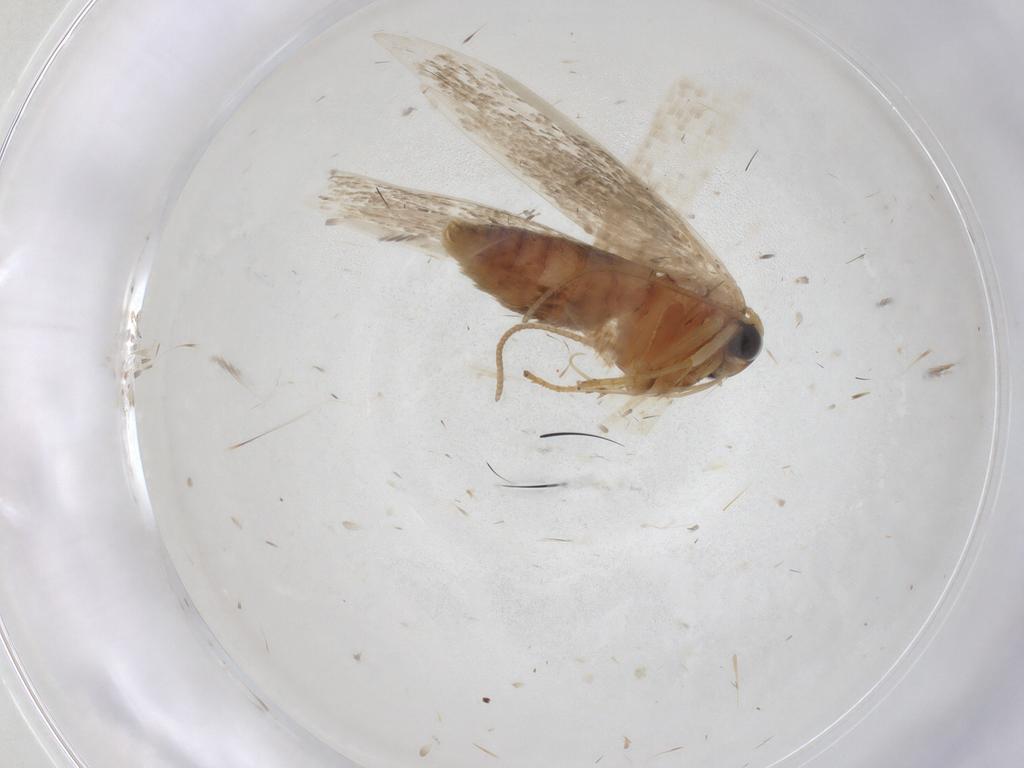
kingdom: Animalia
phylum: Arthropoda
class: Insecta
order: Lepidoptera
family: Blastobasidae
